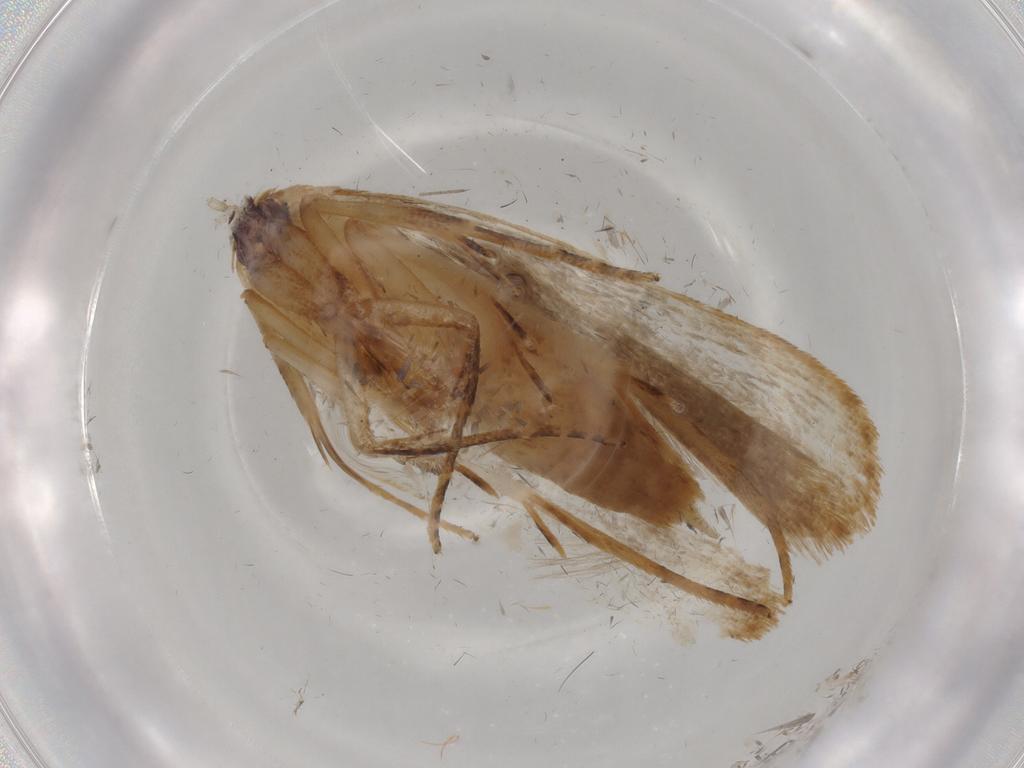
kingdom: Animalia
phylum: Arthropoda
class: Insecta
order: Lepidoptera
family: Gelechiidae
